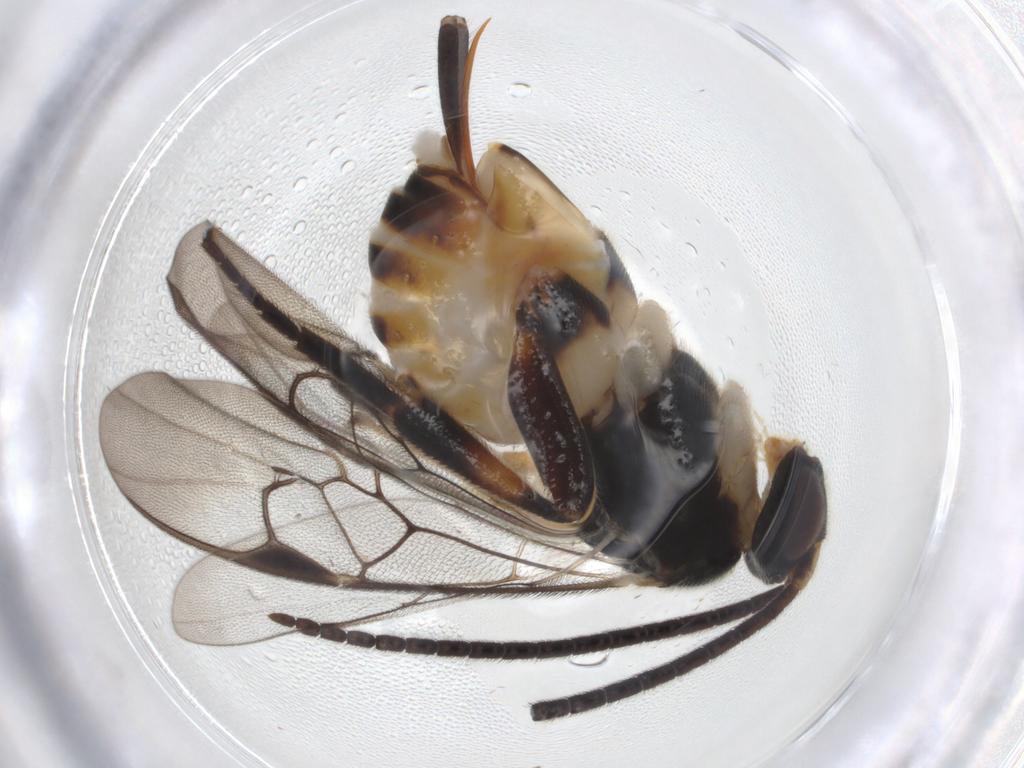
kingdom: Animalia
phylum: Arthropoda
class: Insecta
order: Hymenoptera
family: Braconidae
